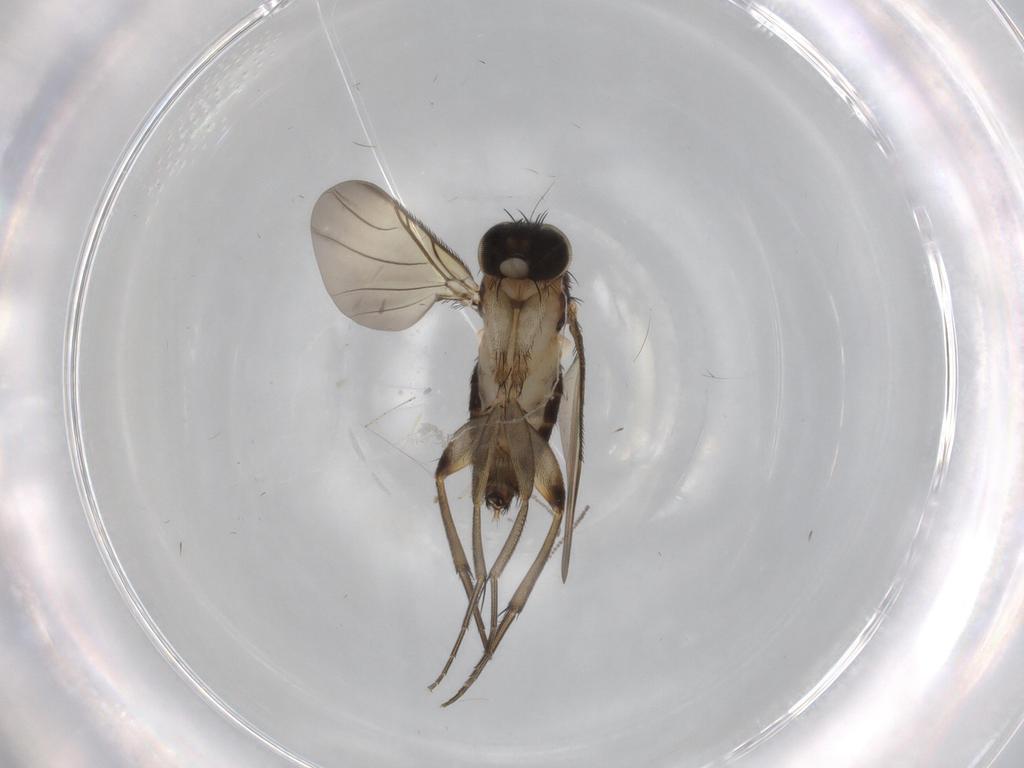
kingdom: Animalia
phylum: Arthropoda
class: Insecta
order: Diptera
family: Phoridae
